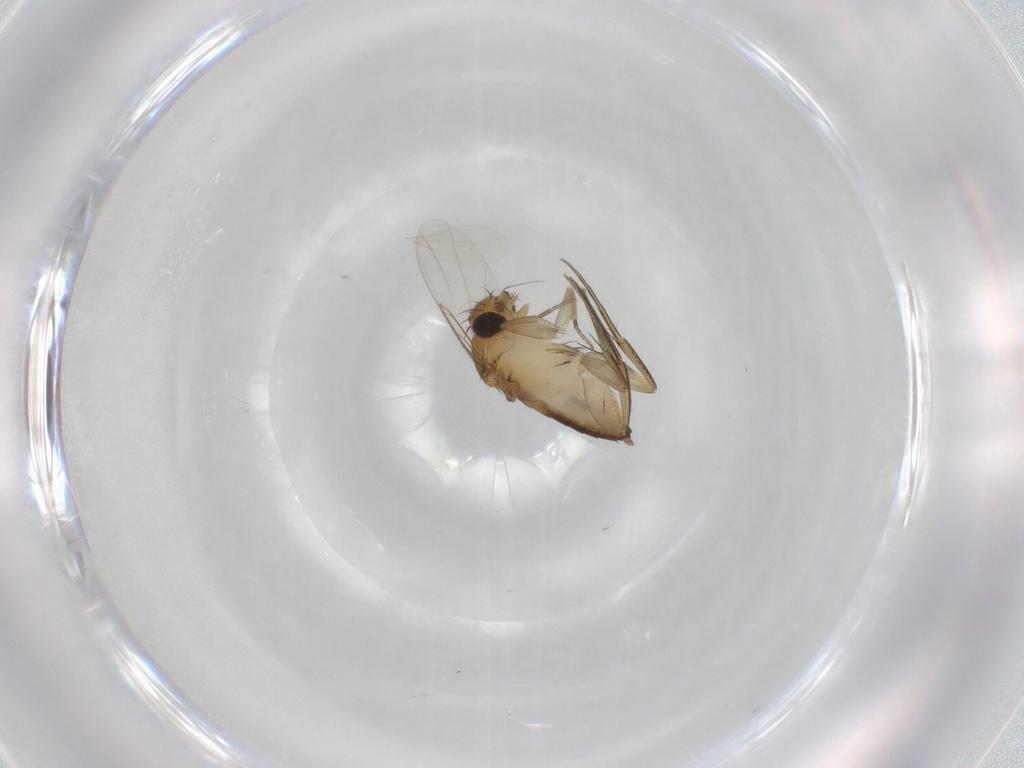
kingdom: Animalia
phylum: Arthropoda
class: Insecta
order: Diptera
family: Phoridae
